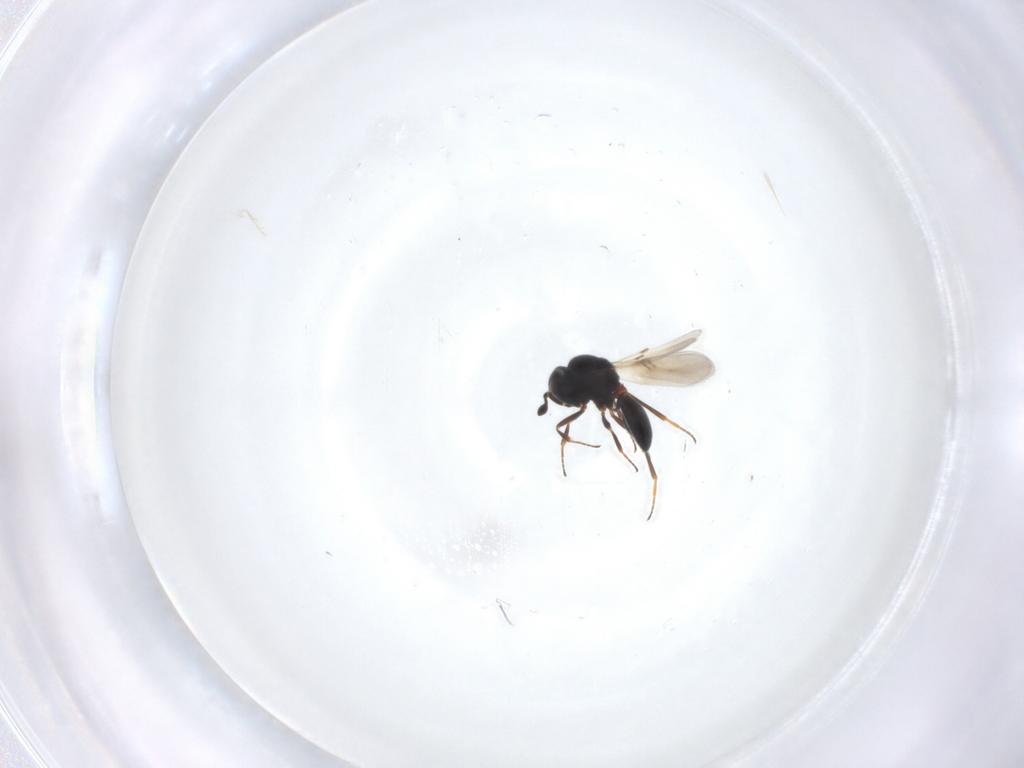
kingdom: Animalia
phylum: Arthropoda
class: Insecta
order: Hymenoptera
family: Scelionidae
